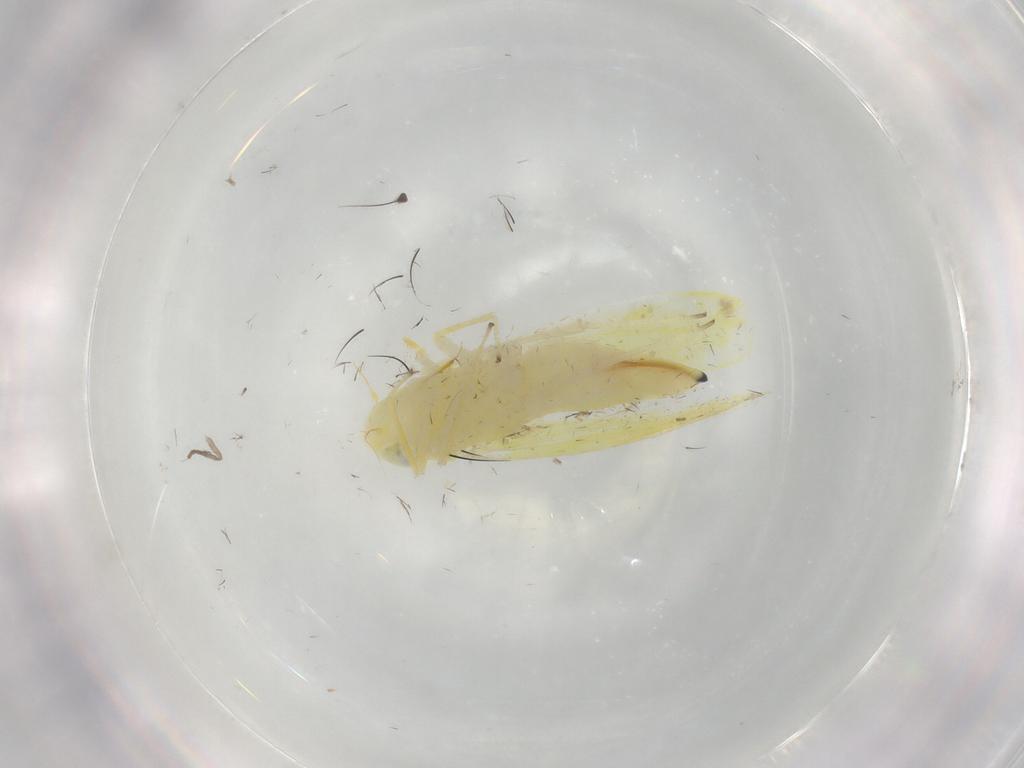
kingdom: Animalia
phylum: Arthropoda
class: Insecta
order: Hemiptera
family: Cicadellidae
